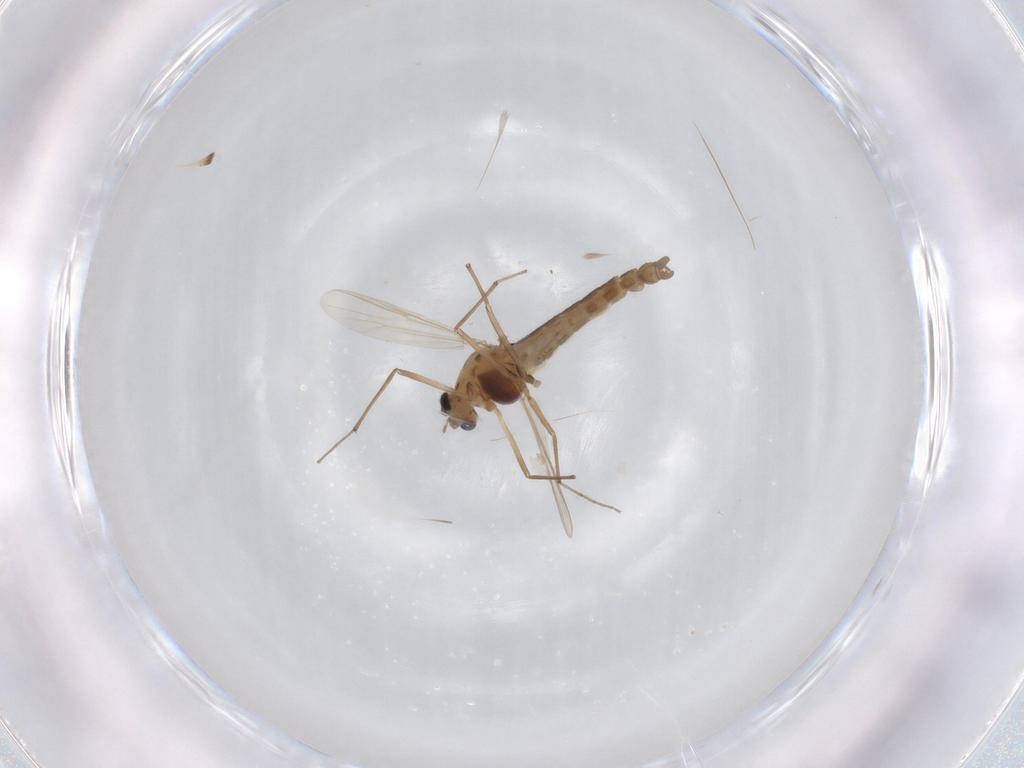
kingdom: Animalia
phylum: Arthropoda
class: Insecta
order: Diptera
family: Chironomidae
